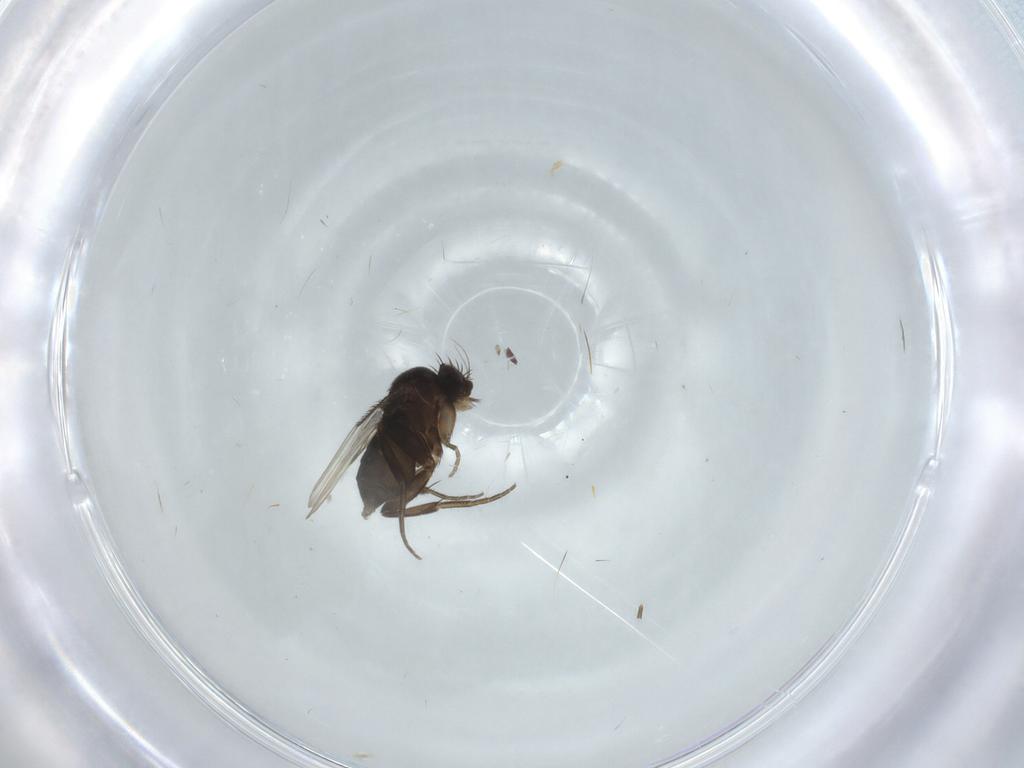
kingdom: Animalia
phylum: Arthropoda
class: Insecta
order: Diptera
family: Phoridae
